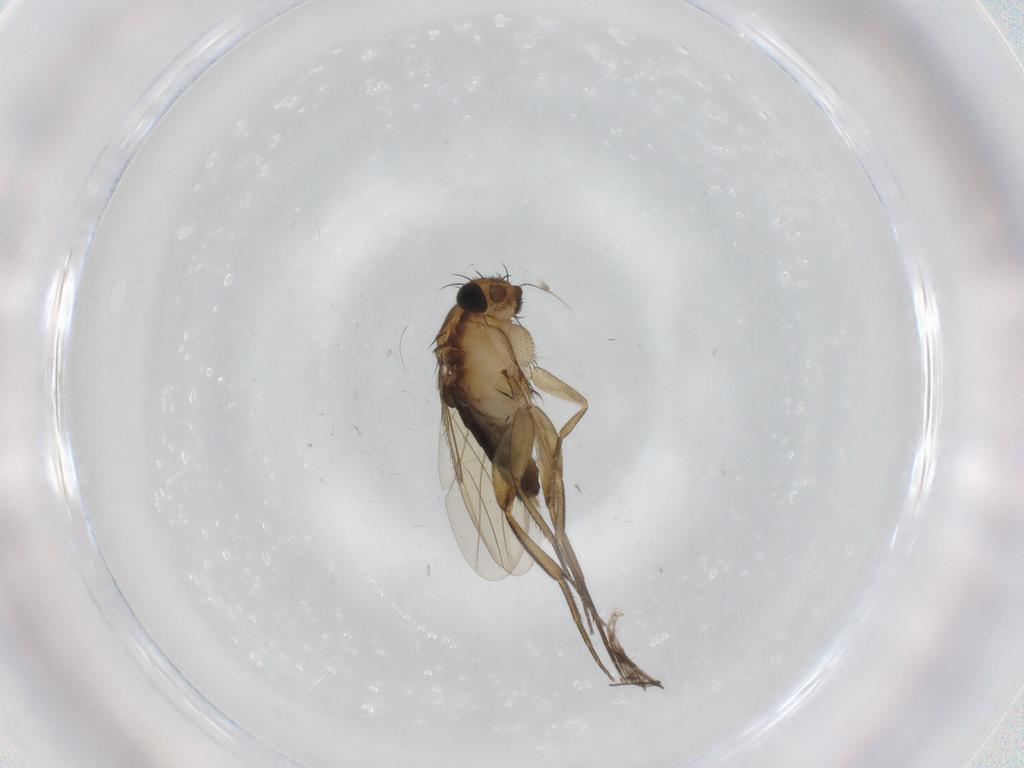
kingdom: Animalia
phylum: Arthropoda
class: Insecta
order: Diptera
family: Phoridae
